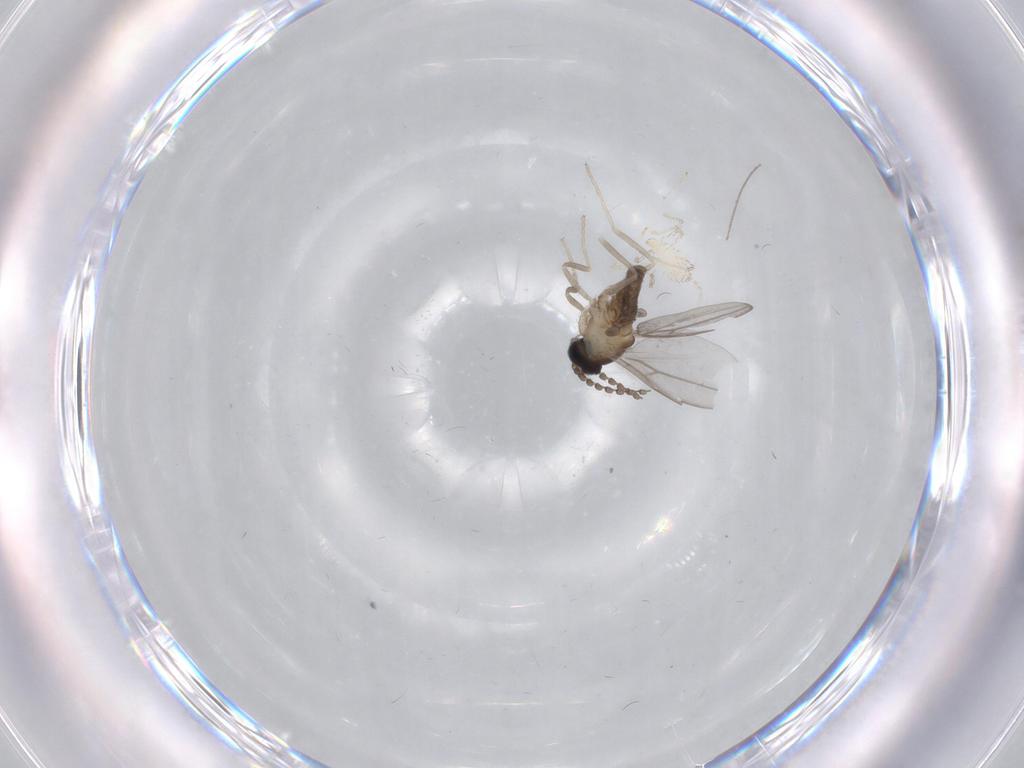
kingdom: Animalia
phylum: Arthropoda
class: Insecta
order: Diptera
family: Cecidomyiidae
